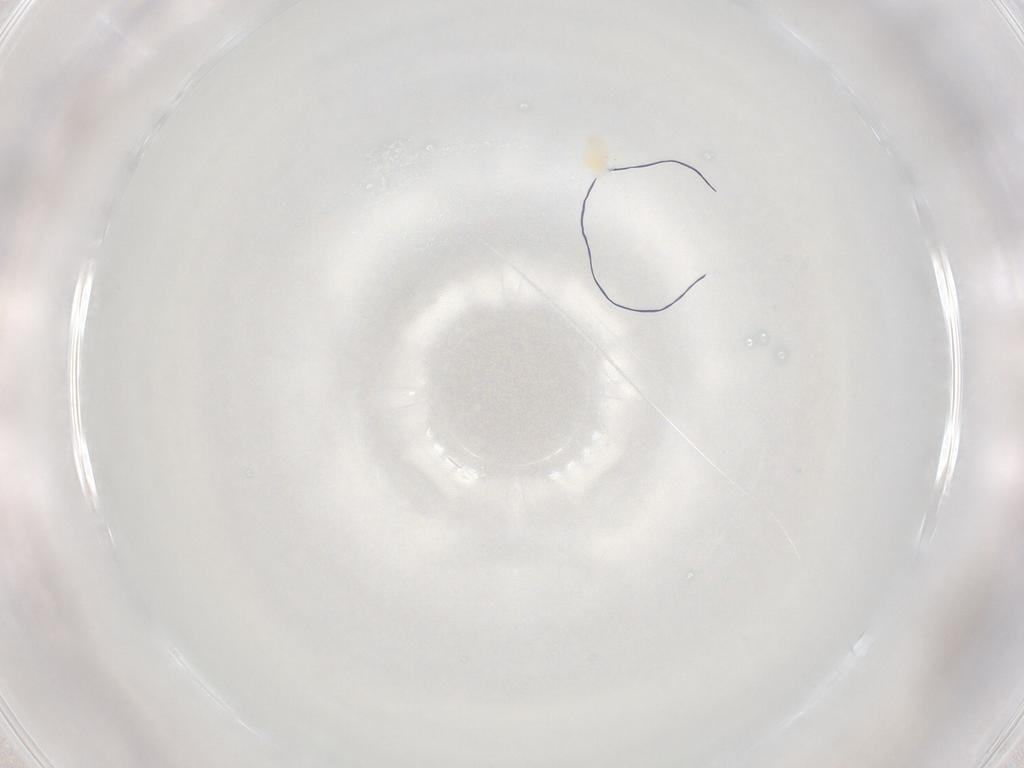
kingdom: Animalia
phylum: Arthropoda
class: Arachnida
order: Trombidiformes
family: Eupodidae
